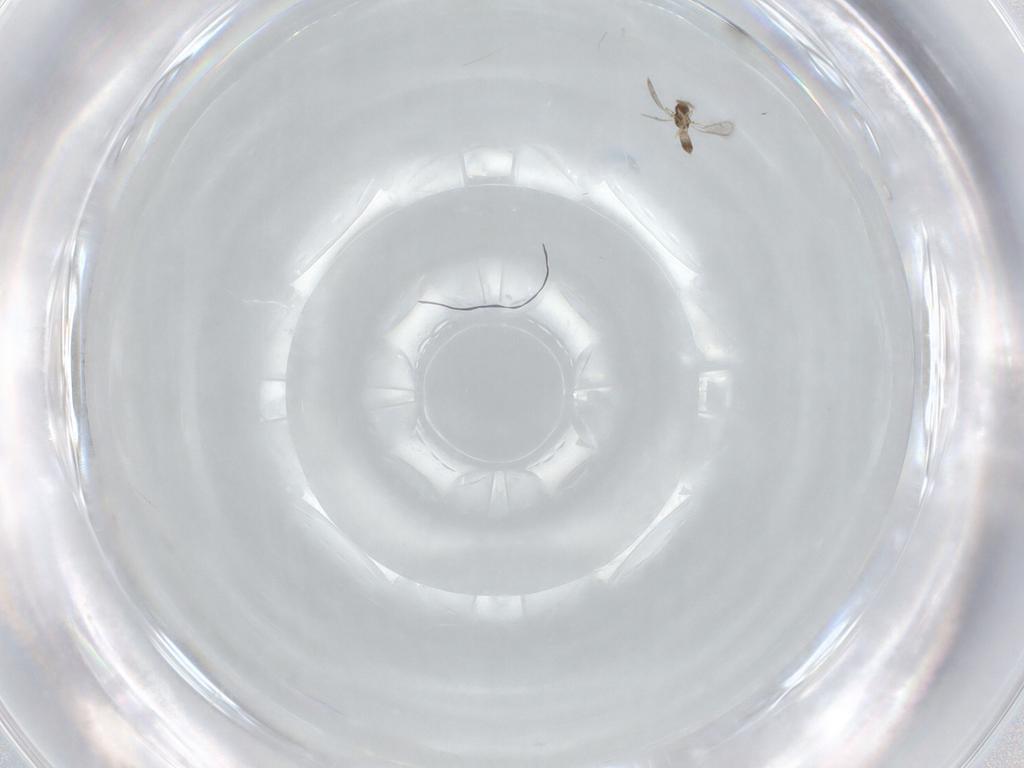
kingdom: Animalia
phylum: Arthropoda
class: Insecta
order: Hymenoptera
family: Eulophidae
